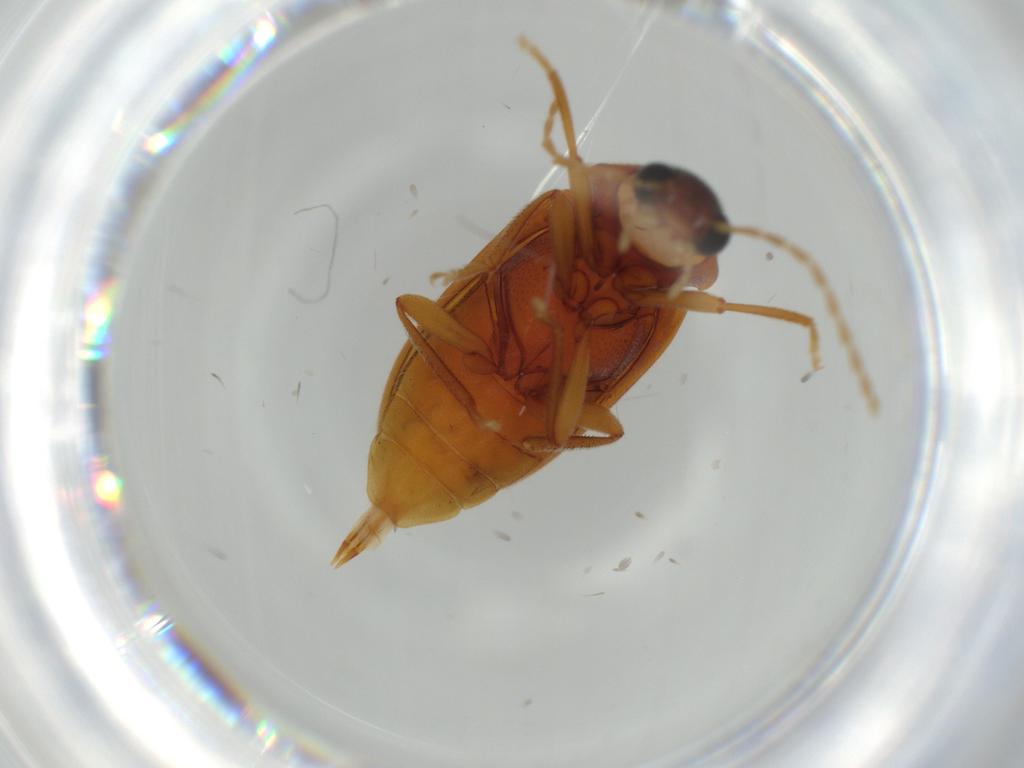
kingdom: Animalia
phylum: Arthropoda
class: Insecta
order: Coleoptera
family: Ptilodactylidae
